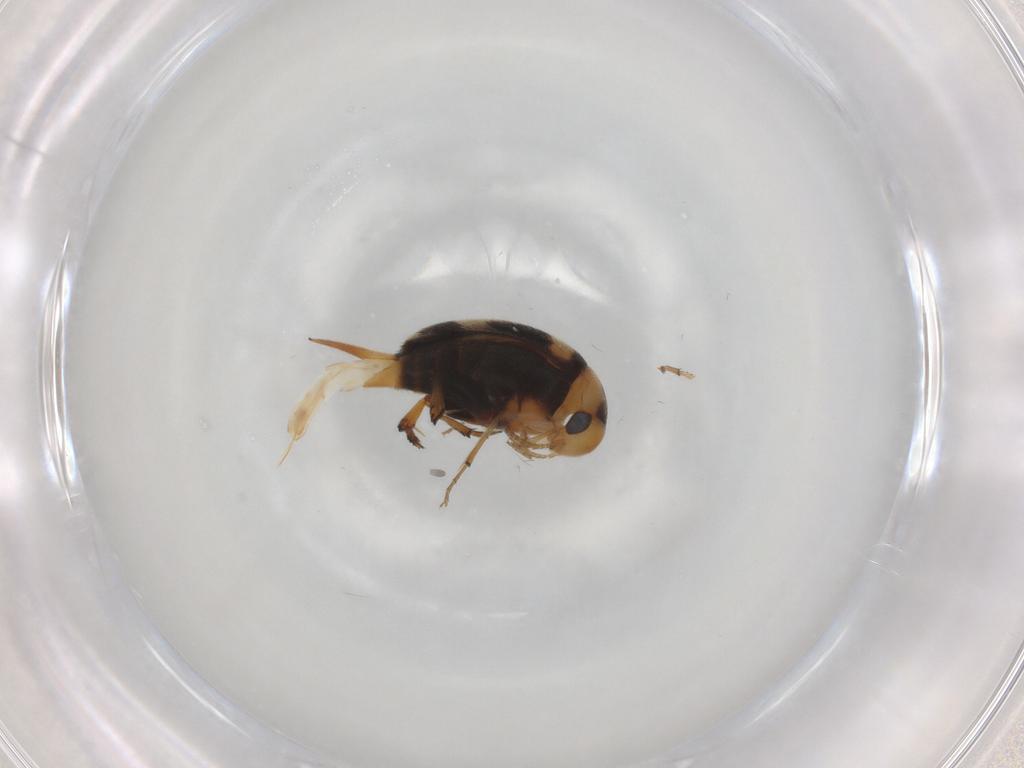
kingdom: Animalia
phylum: Arthropoda
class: Insecta
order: Coleoptera
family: Mordellidae
